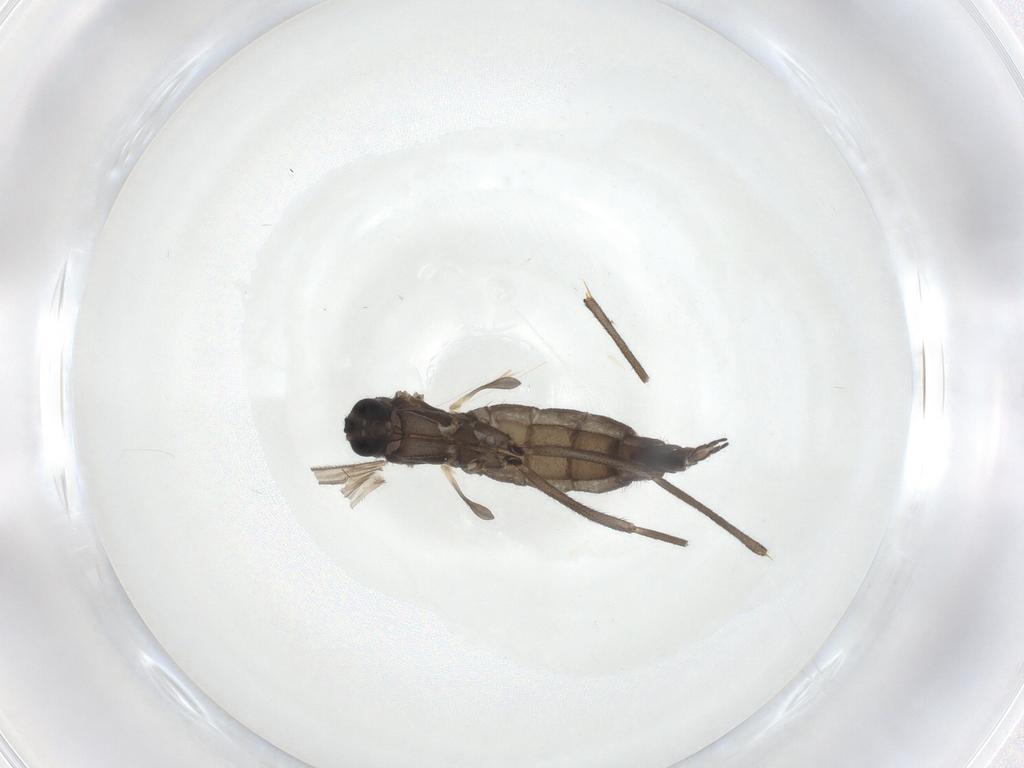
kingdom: Animalia
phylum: Arthropoda
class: Insecta
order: Diptera
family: Sciaridae
